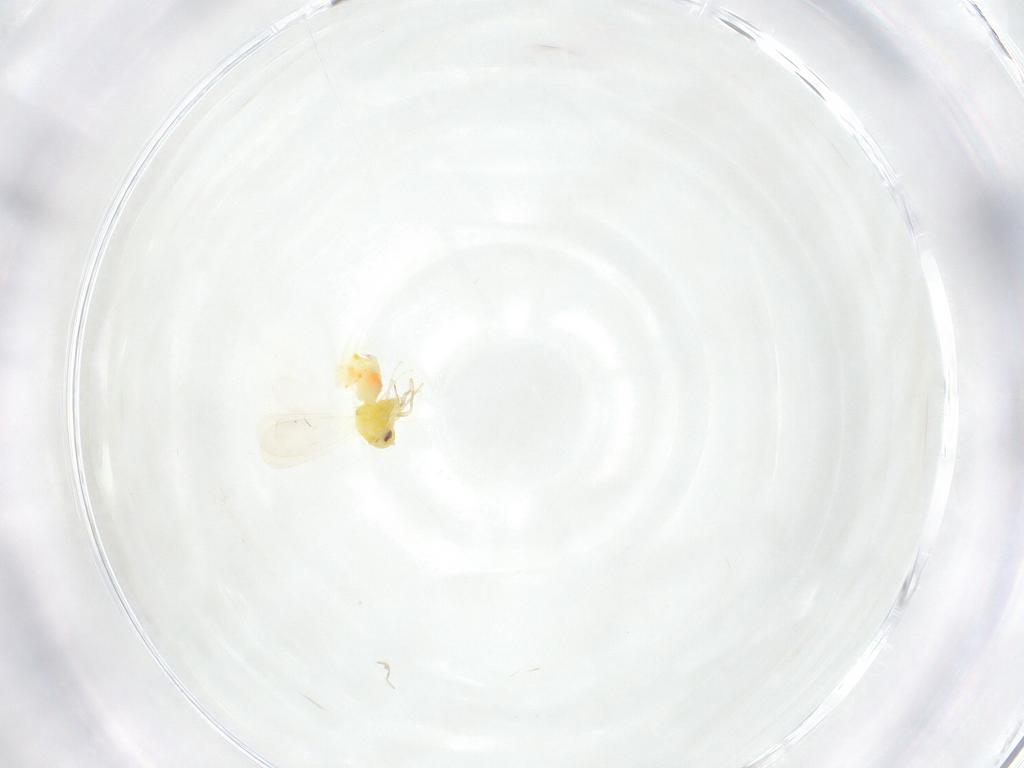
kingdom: Animalia
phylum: Arthropoda
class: Insecta
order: Hemiptera
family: Aleyrodidae
